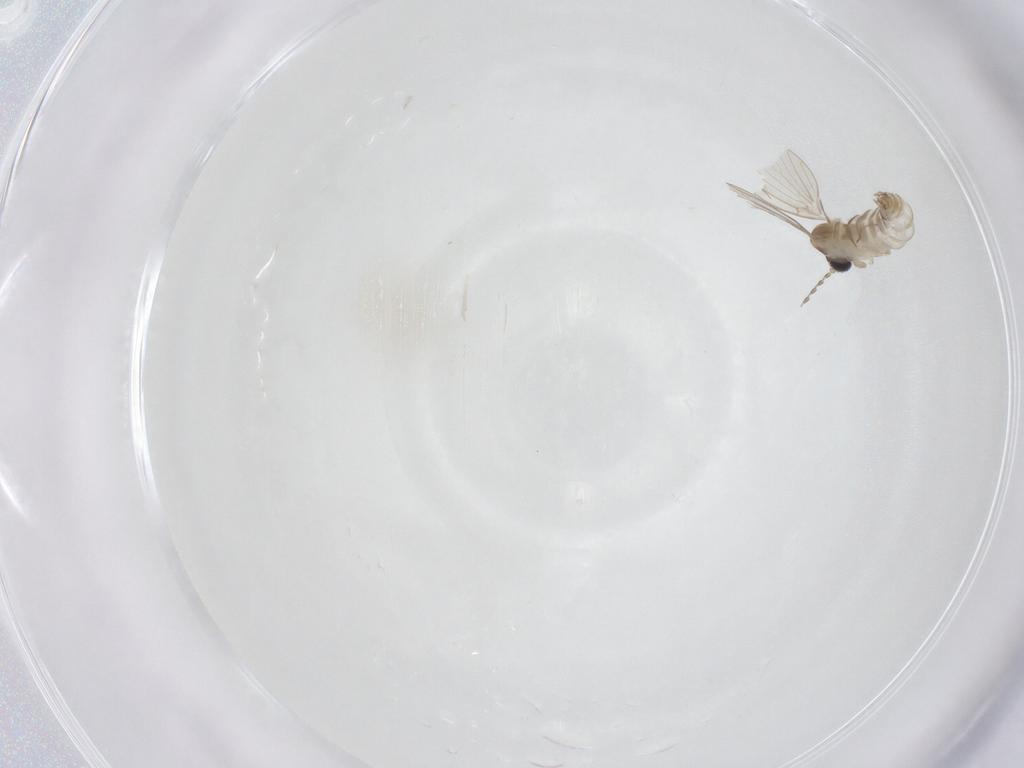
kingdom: Animalia
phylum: Arthropoda
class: Insecta
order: Diptera
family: Psychodidae
